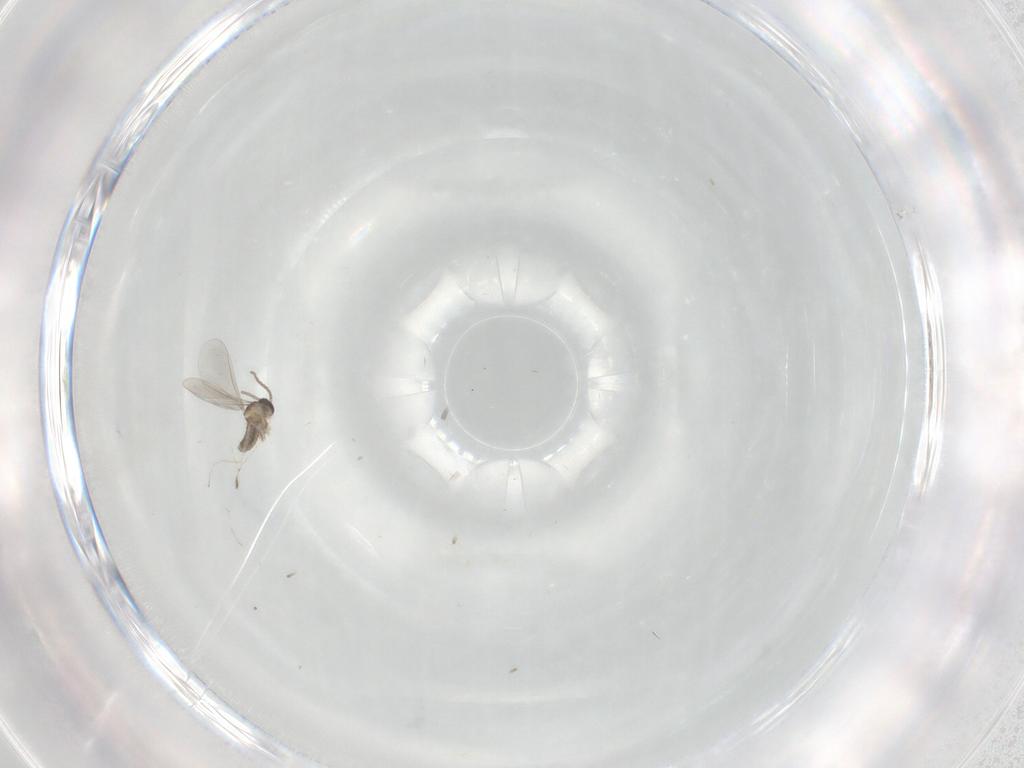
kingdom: Animalia
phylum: Arthropoda
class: Insecta
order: Diptera
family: Cecidomyiidae
